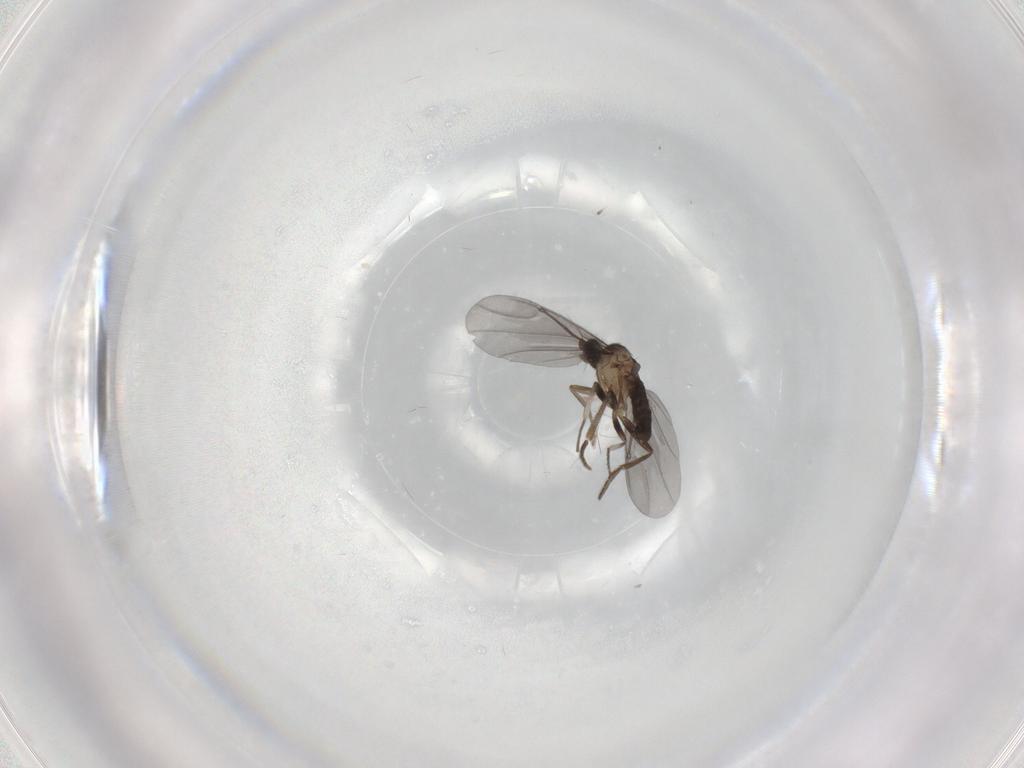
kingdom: Animalia
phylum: Arthropoda
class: Insecta
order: Diptera
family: Phoridae
